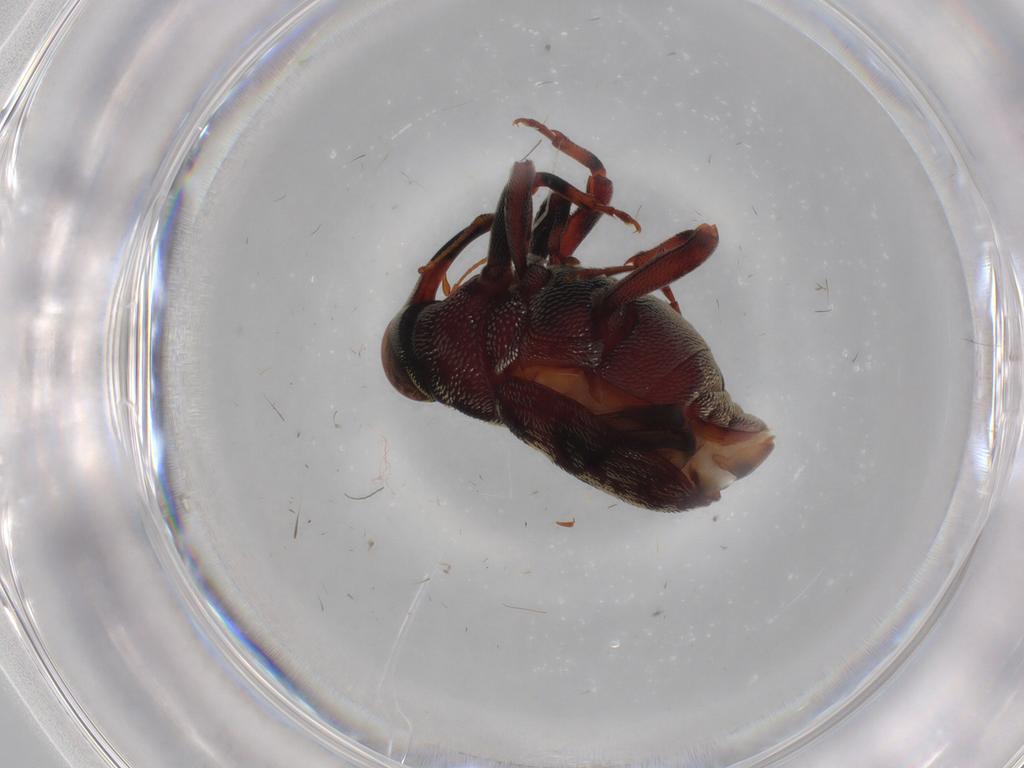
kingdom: Animalia
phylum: Arthropoda
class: Insecta
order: Coleoptera
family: Curculionidae
